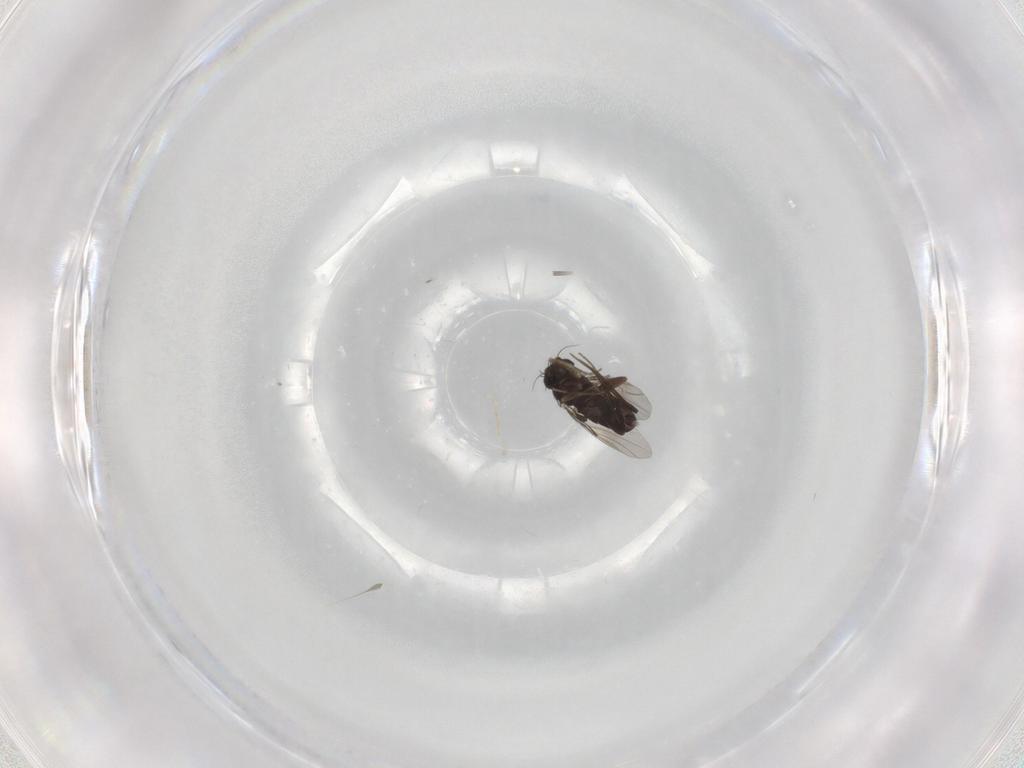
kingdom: Animalia
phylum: Arthropoda
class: Insecta
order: Diptera
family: Phoridae
